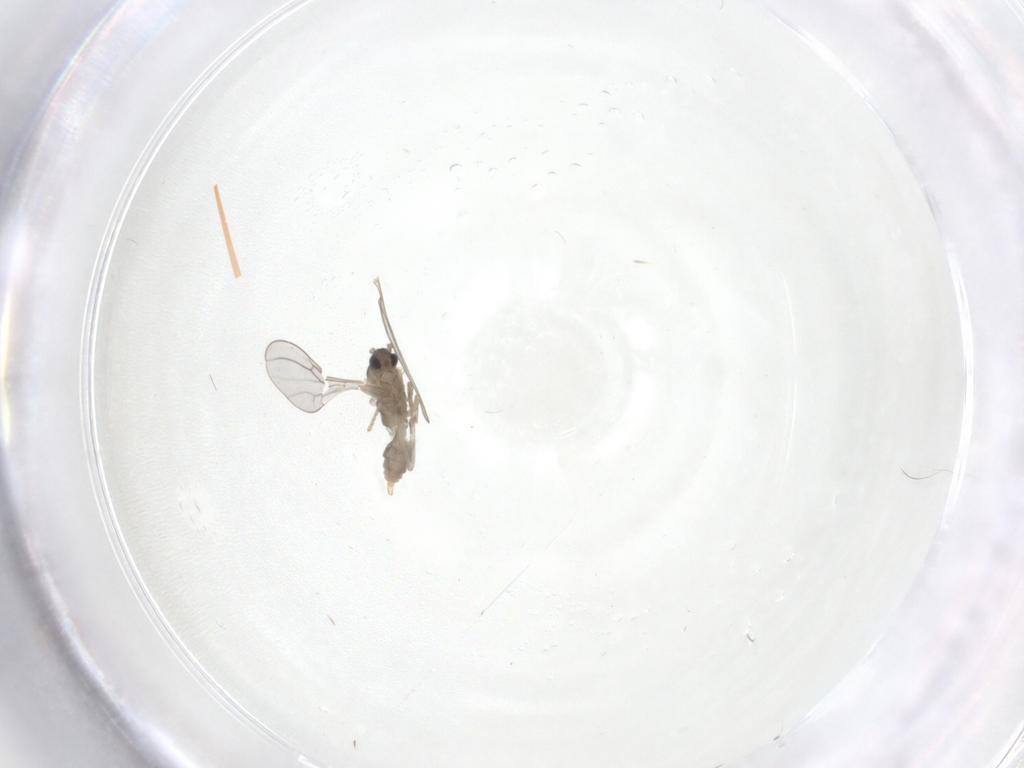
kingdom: Animalia
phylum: Arthropoda
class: Insecta
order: Diptera
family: Cecidomyiidae
